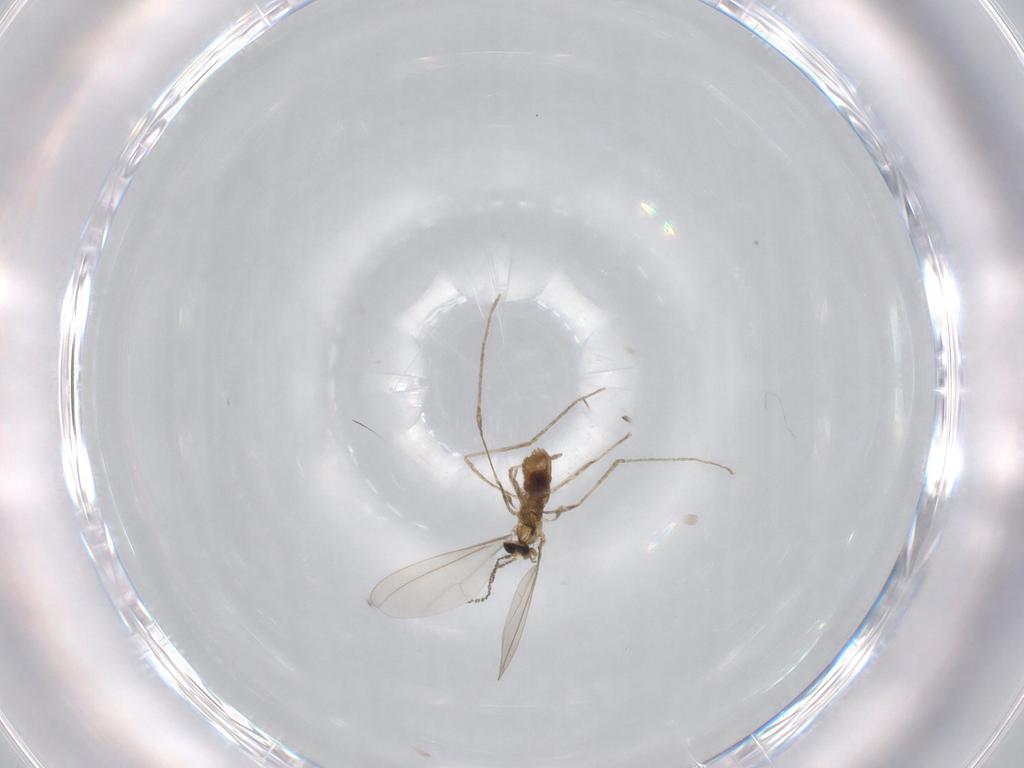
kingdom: Animalia
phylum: Arthropoda
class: Insecta
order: Diptera
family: Cecidomyiidae
